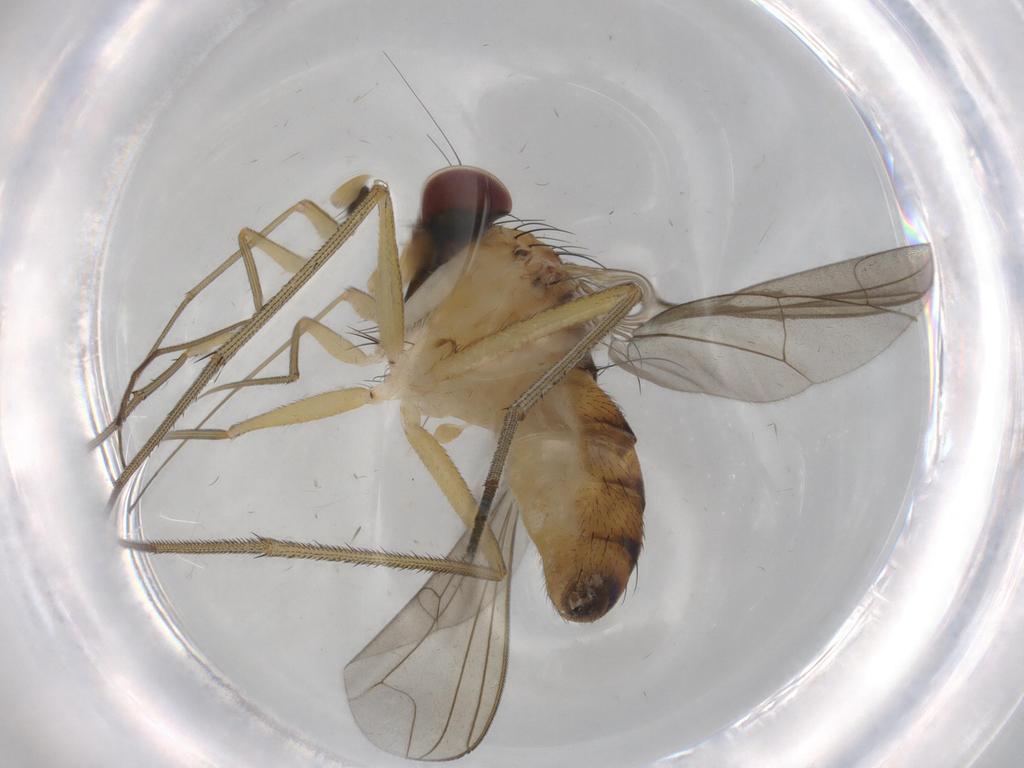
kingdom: Animalia
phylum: Arthropoda
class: Insecta
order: Diptera
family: Dolichopodidae
